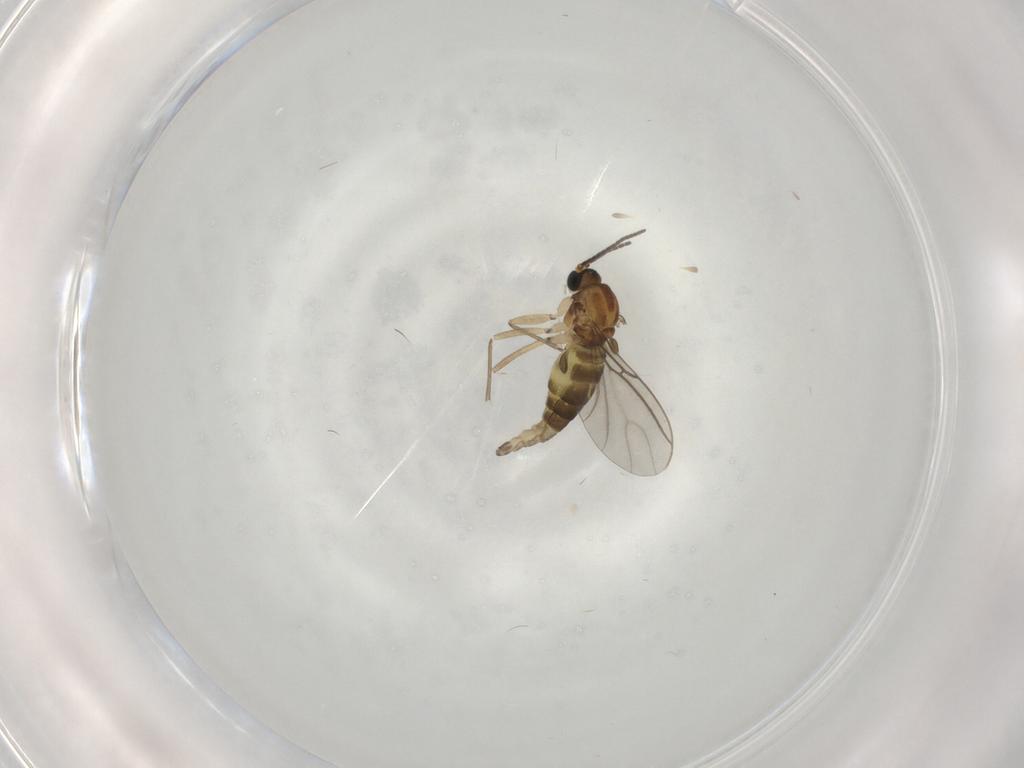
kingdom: Animalia
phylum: Arthropoda
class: Insecta
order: Diptera
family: Sciaridae
